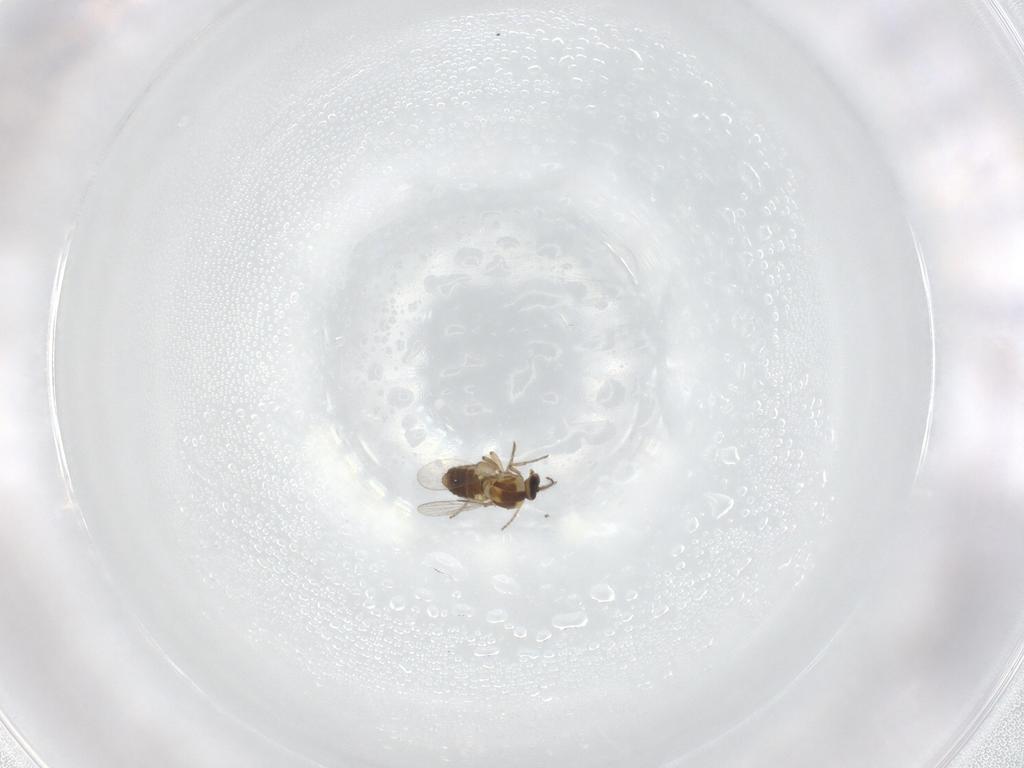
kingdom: Animalia
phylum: Arthropoda
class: Insecta
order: Diptera
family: Ceratopogonidae
